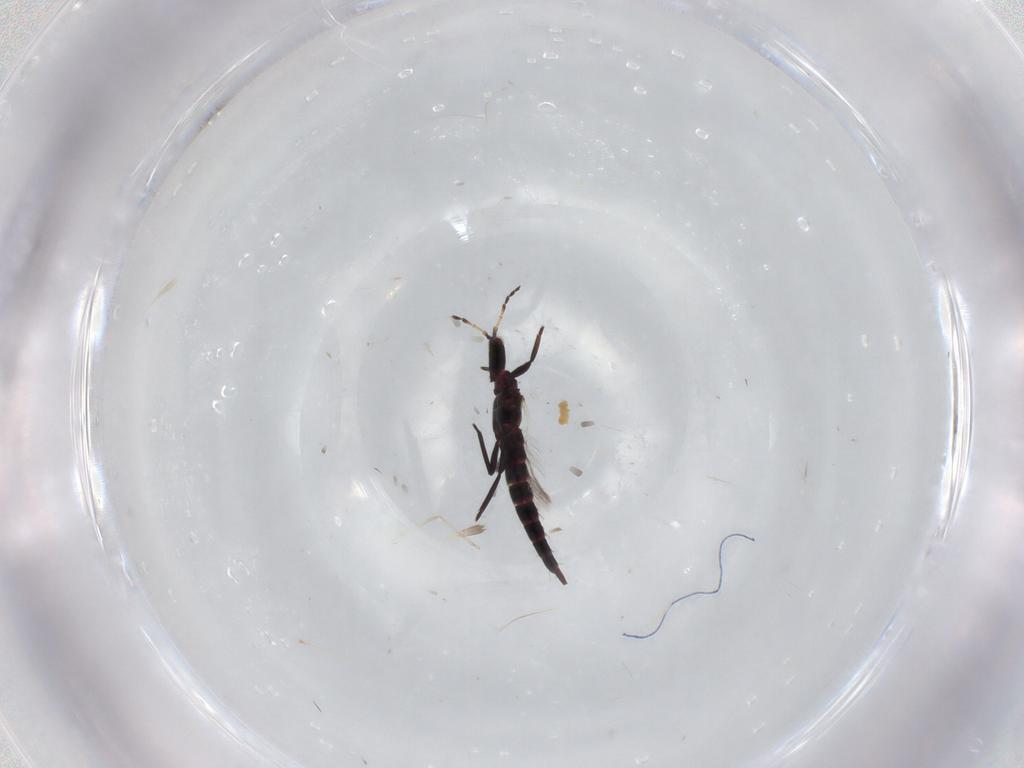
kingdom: Animalia
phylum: Arthropoda
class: Insecta
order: Thysanoptera
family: Phlaeothripidae
